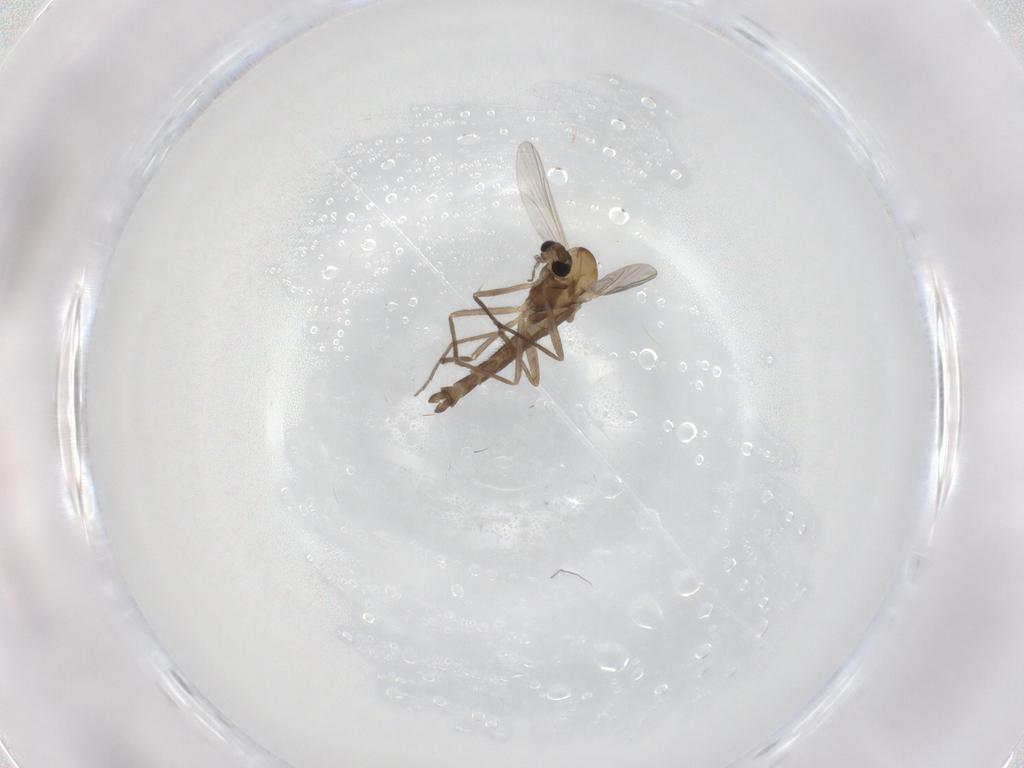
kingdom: Animalia
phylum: Arthropoda
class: Insecta
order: Diptera
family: Chironomidae
